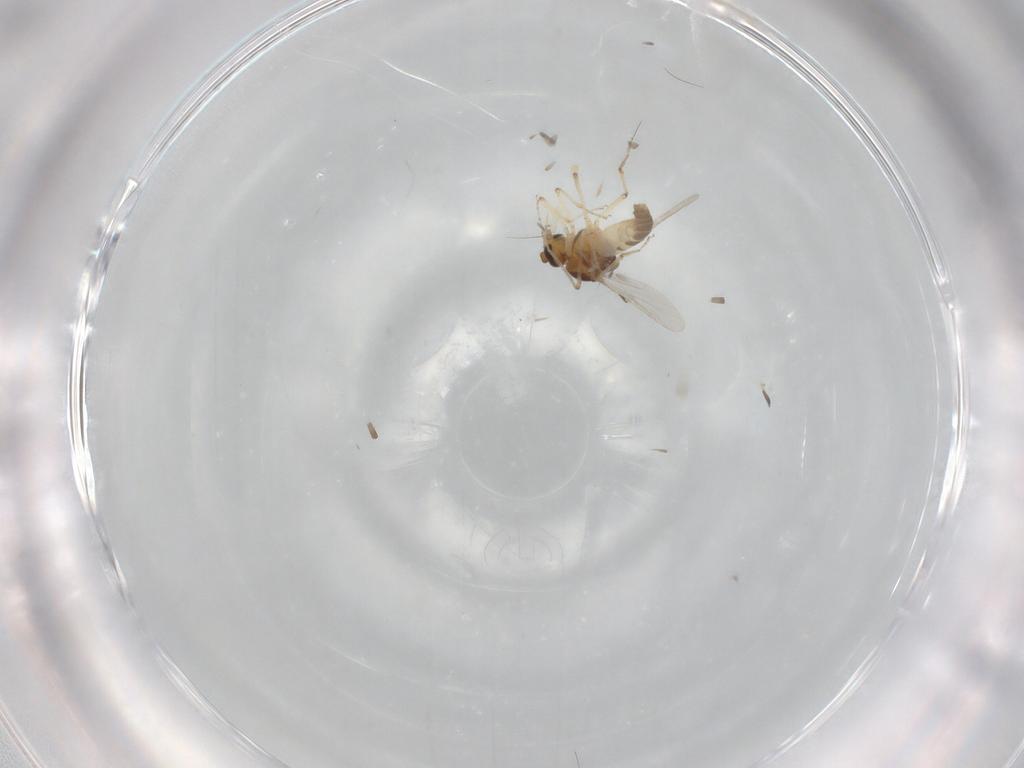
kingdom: Animalia
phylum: Arthropoda
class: Insecta
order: Diptera
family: Ceratopogonidae
